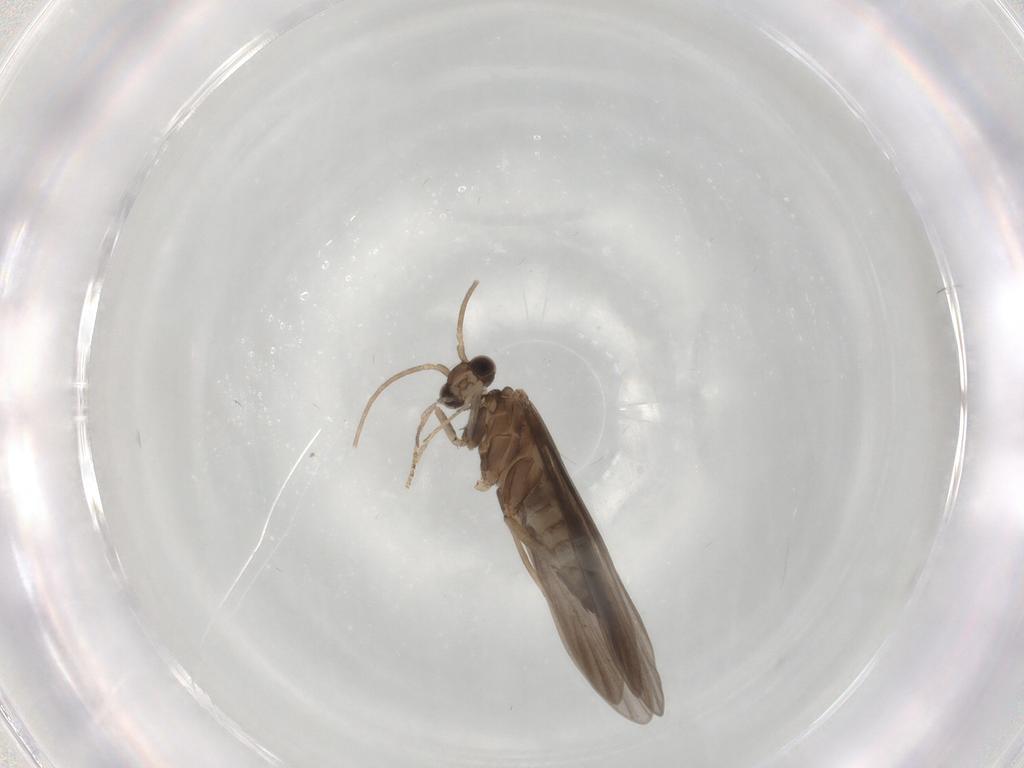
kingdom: Animalia
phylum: Arthropoda
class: Insecta
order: Trichoptera
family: Xiphocentronidae
